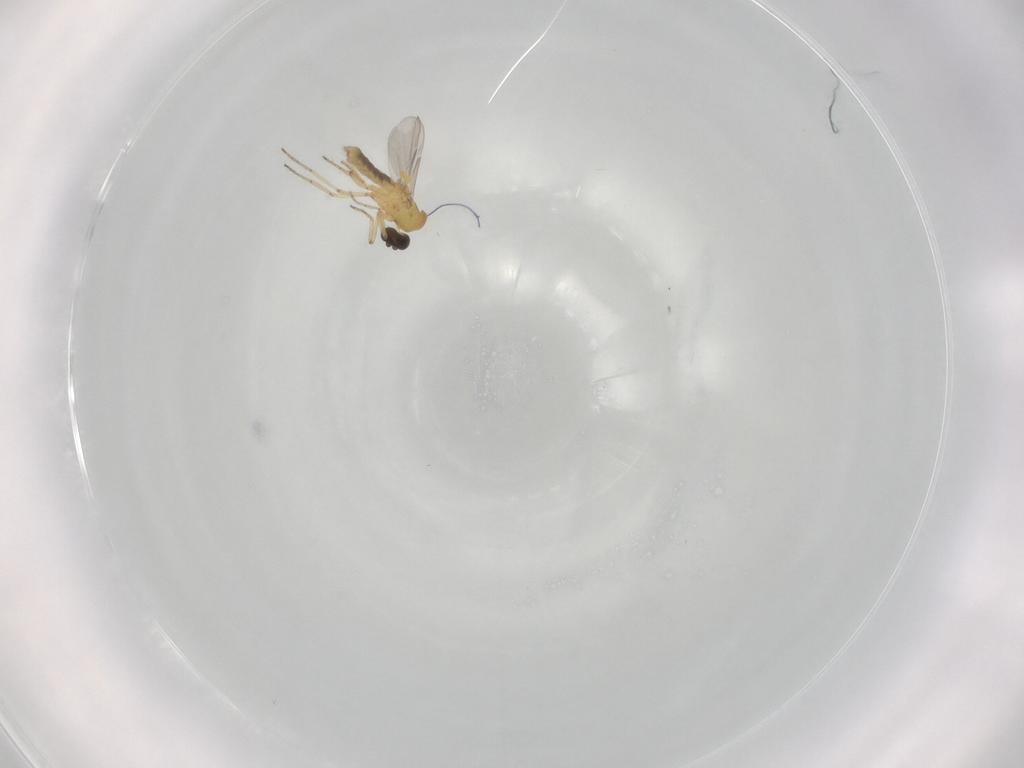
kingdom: Animalia
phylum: Arthropoda
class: Insecta
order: Diptera
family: Ceratopogonidae
